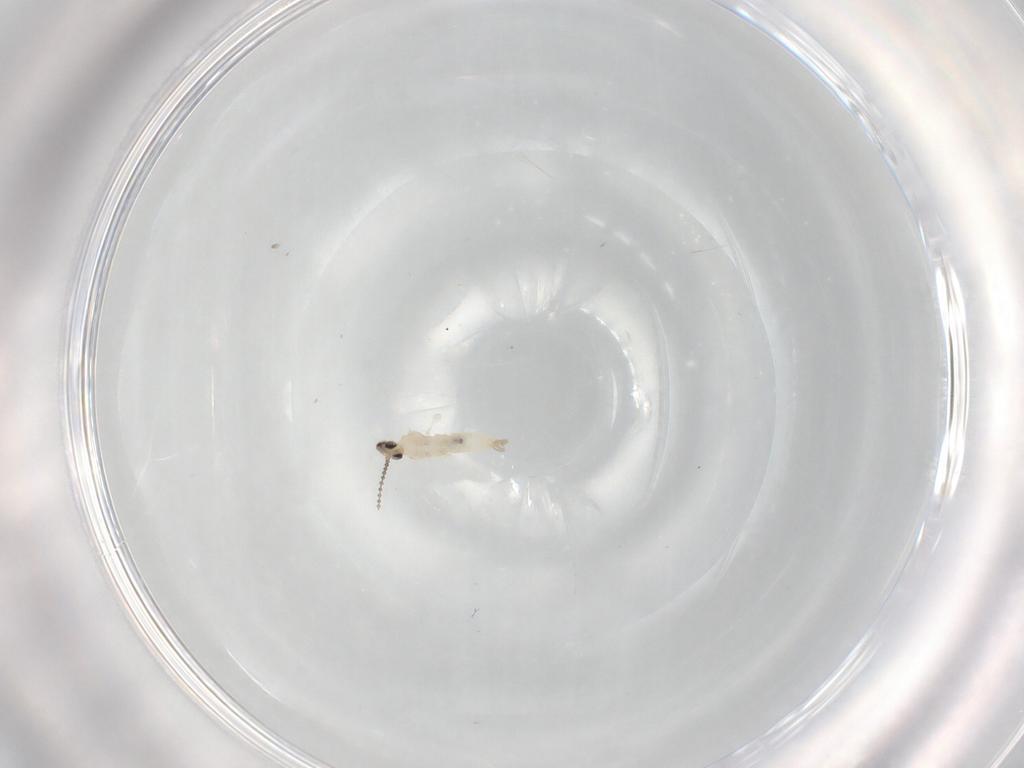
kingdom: Animalia
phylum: Arthropoda
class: Insecta
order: Diptera
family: Cecidomyiidae
